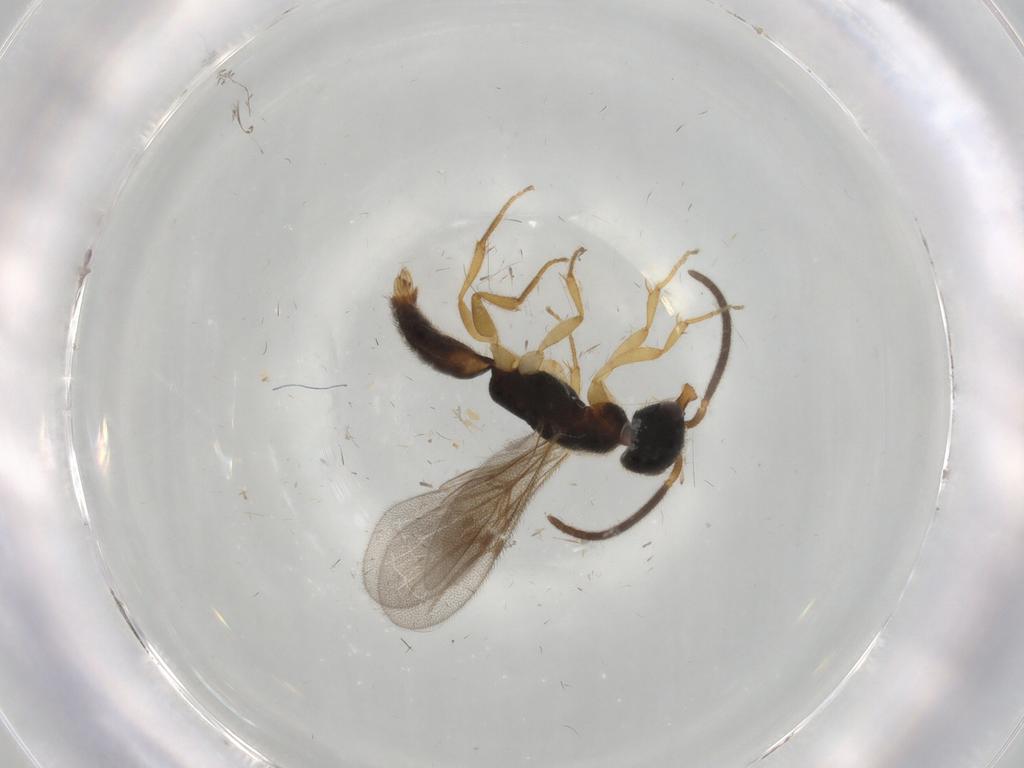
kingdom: Animalia
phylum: Arthropoda
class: Insecta
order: Hymenoptera
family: Bethylidae
